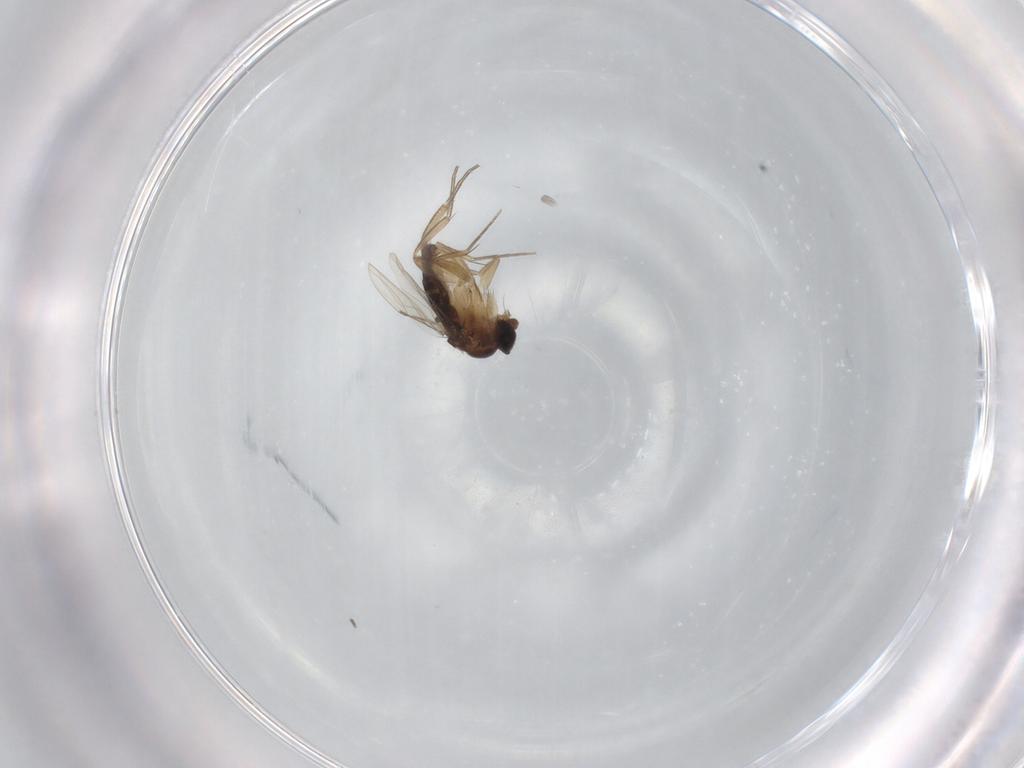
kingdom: Animalia
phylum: Arthropoda
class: Insecta
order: Diptera
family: Phoridae
